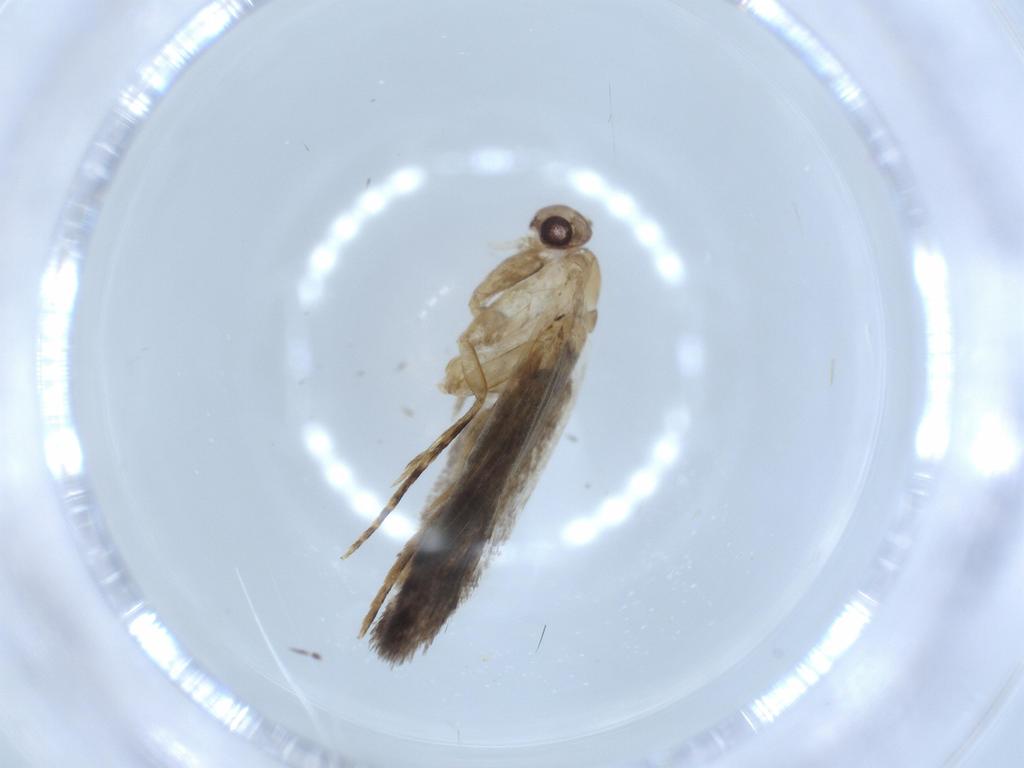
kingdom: Animalia
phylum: Arthropoda
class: Insecta
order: Lepidoptera
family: Tineidae
